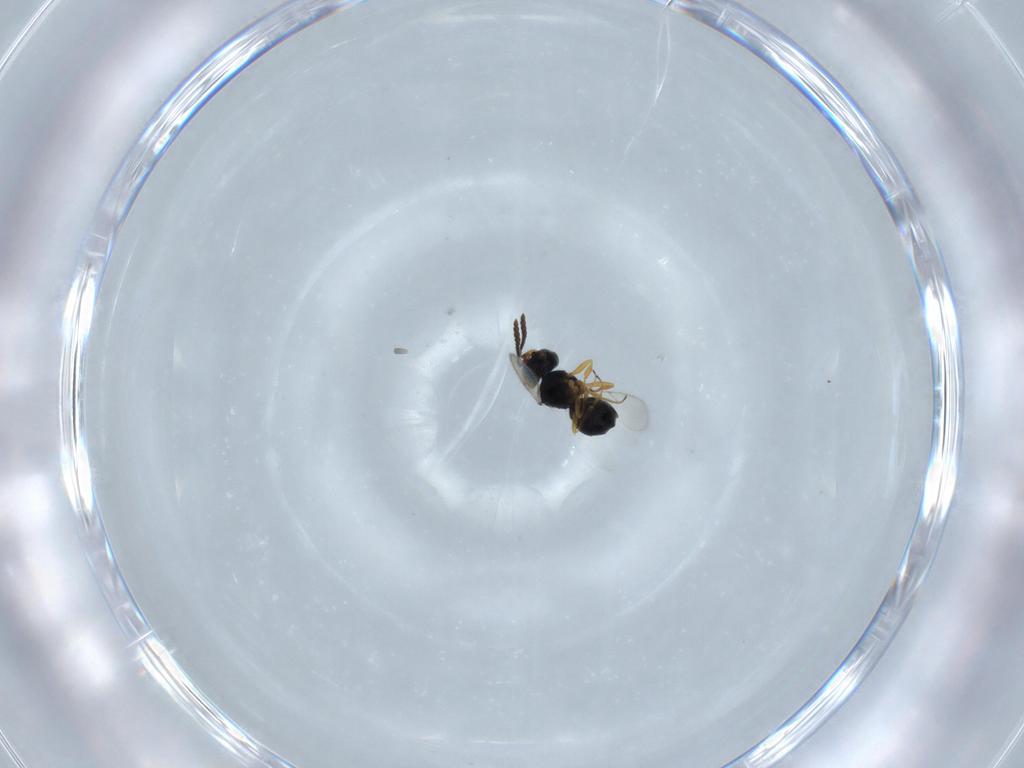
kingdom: Animalia
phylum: Arthropoda
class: Insecta
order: Hymenoptera
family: Scelionidae
